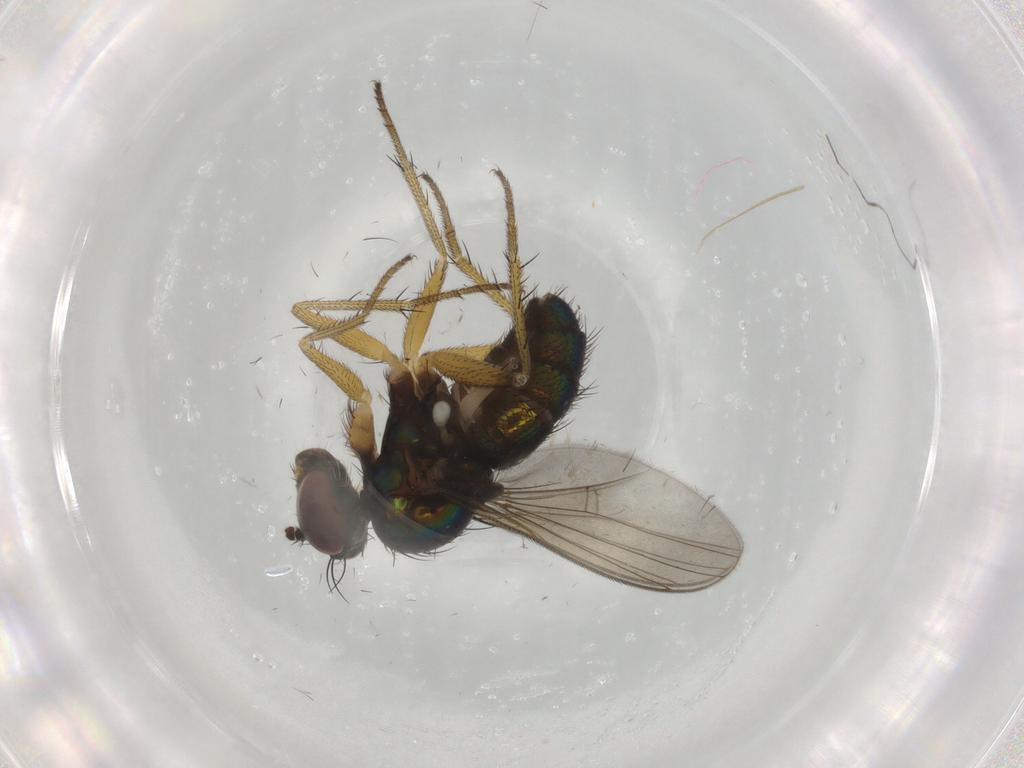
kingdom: Animalia
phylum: Arthropoda
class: Insecta
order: Diptera
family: Dolichopodidae
